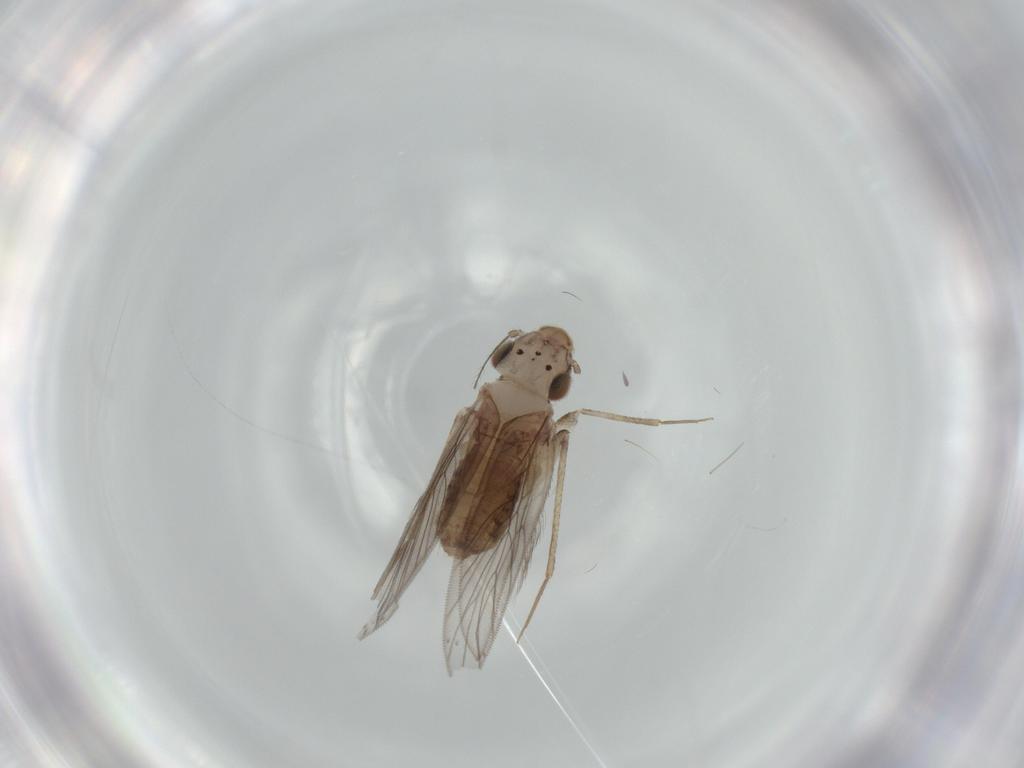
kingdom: Animalia
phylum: Arthropoda
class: Insecta
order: Psocodea
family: Lepidopsocidae
